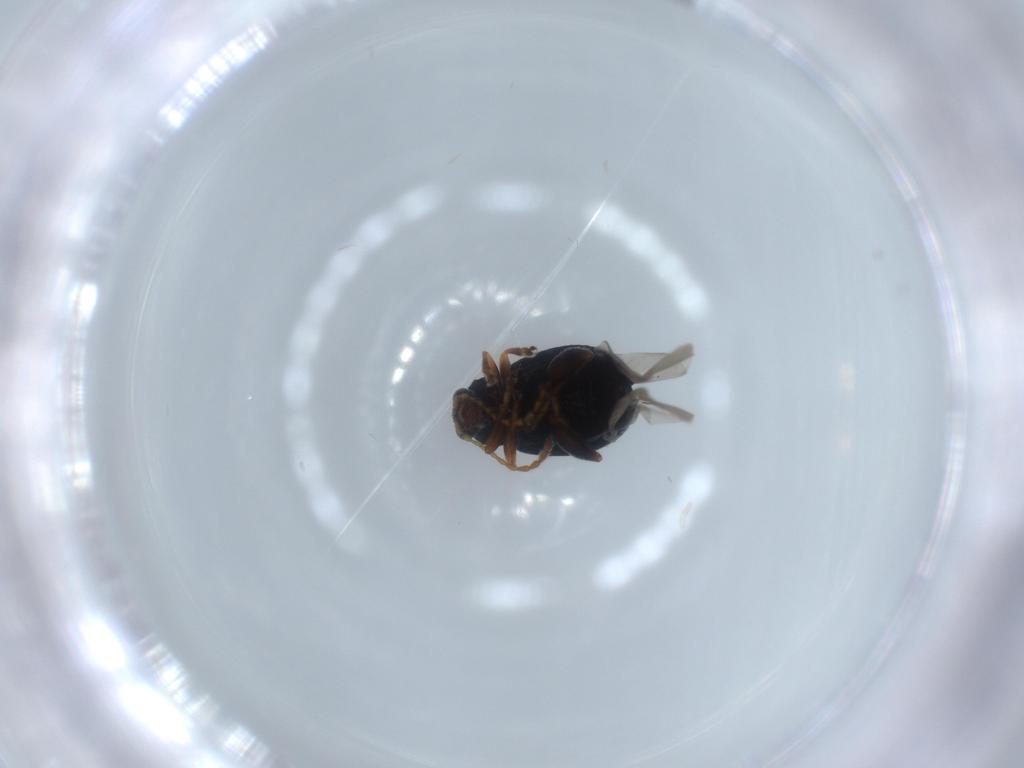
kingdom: Animalia
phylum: Arthropoda
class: Insecta
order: Coleoptera
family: Chrysomelidae
